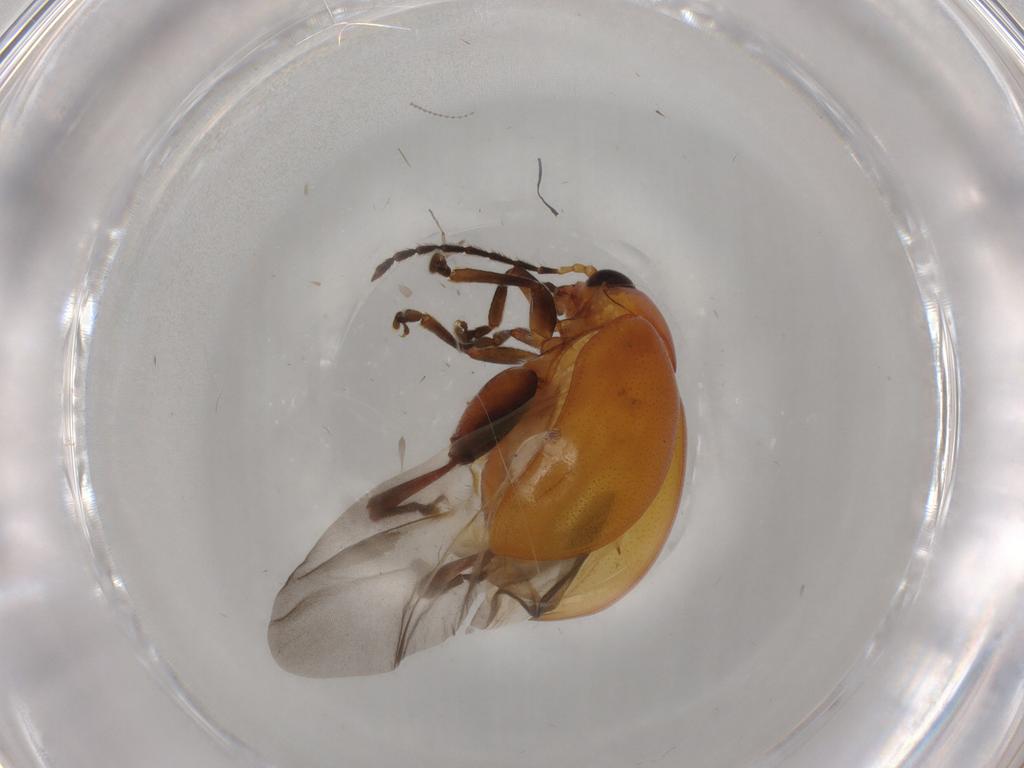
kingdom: Animalia
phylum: Arthropoda
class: Insecta
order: Coleoptera
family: Chrysomelidae
